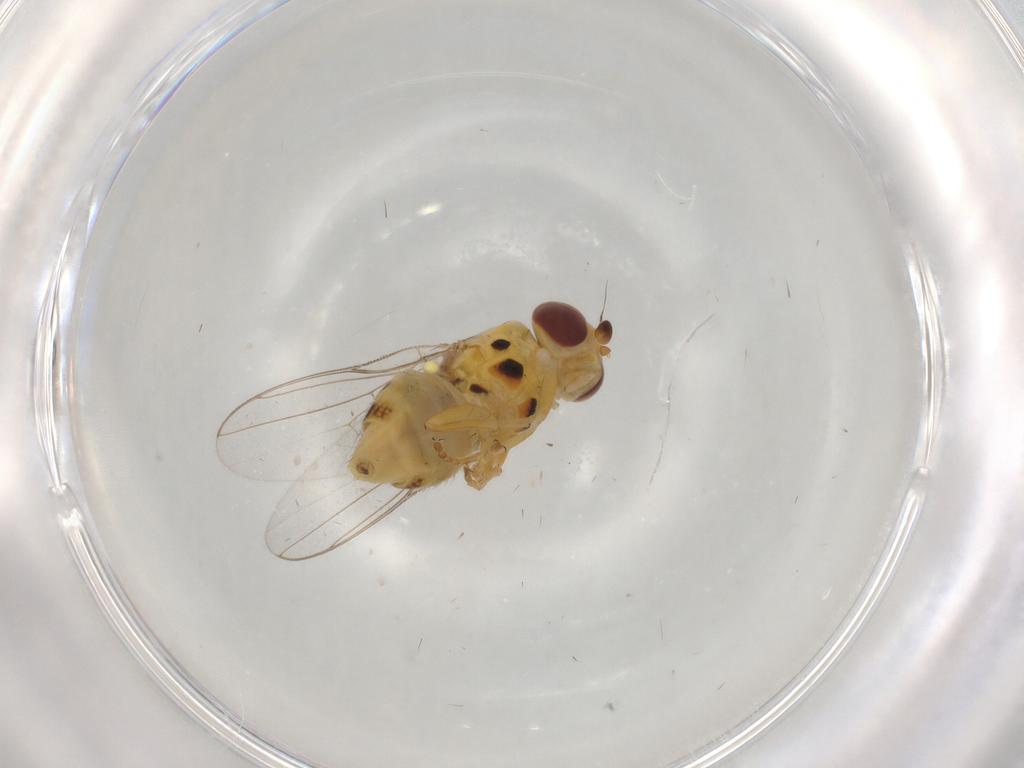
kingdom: Animalia
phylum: Arthropoda
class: Insecta
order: Diptera
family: Chloropidae
